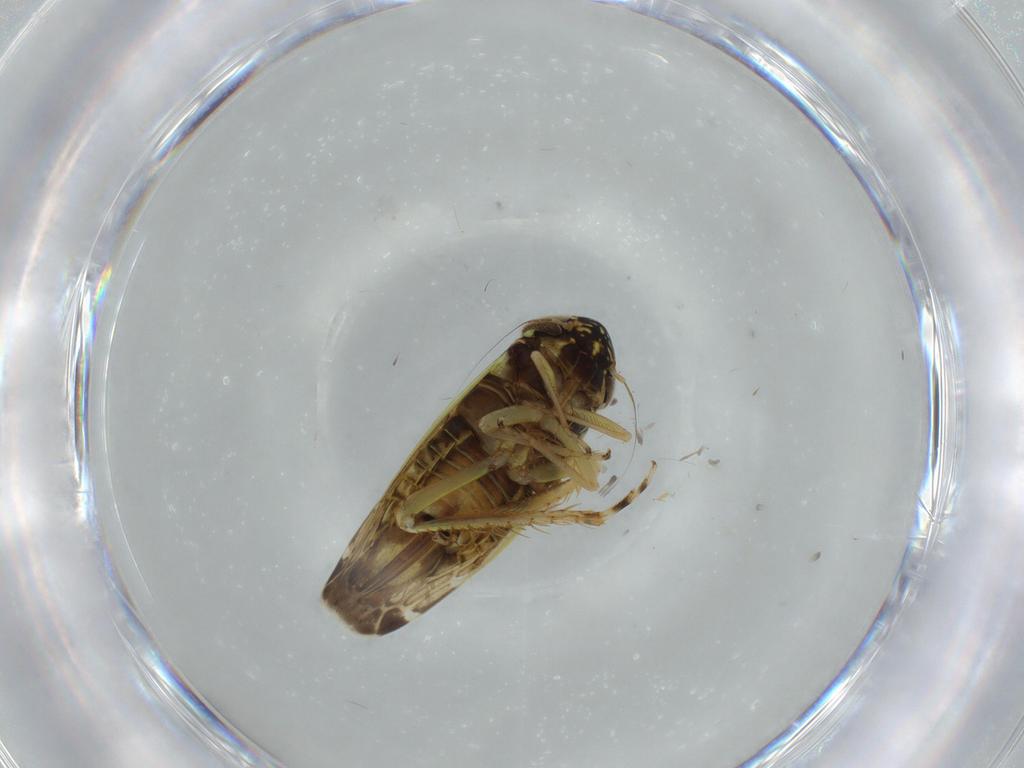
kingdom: Animalia
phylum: Arthropoda
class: Insecta
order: Hemiptera
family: Cicadellidae
